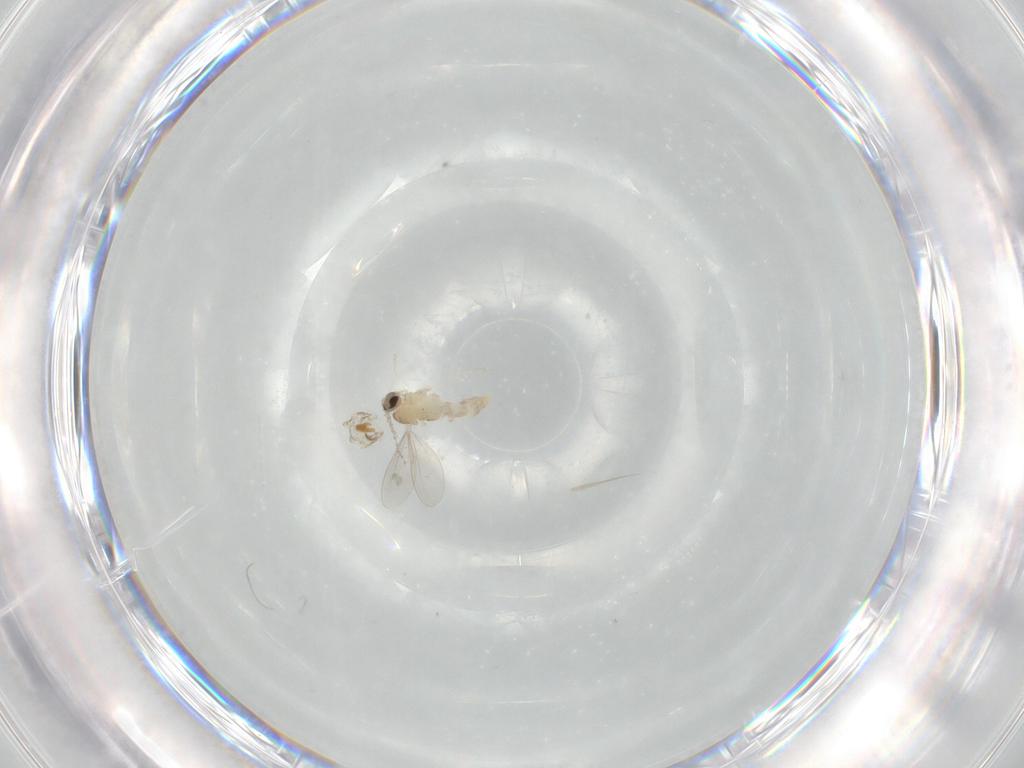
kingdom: Animalia
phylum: Arthropoda
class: Insecta
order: Diptera
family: Cecidomyiidae
